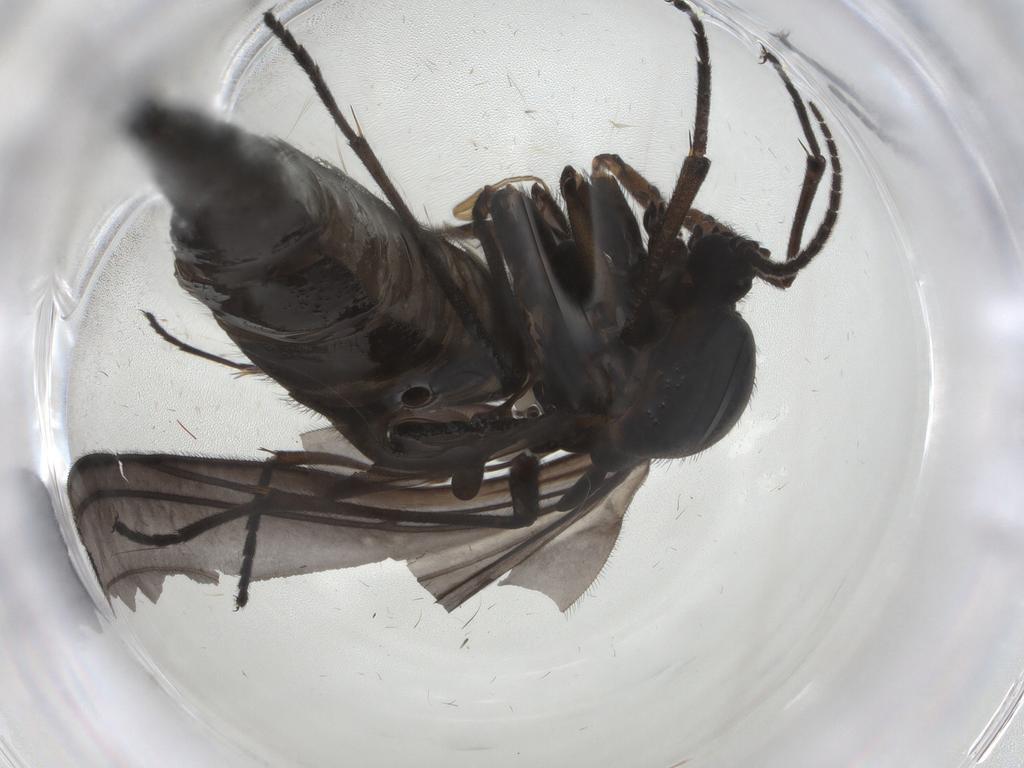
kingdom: Animalia
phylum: Arthropoda
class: Insecta
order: Diptera
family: Sciaridae
